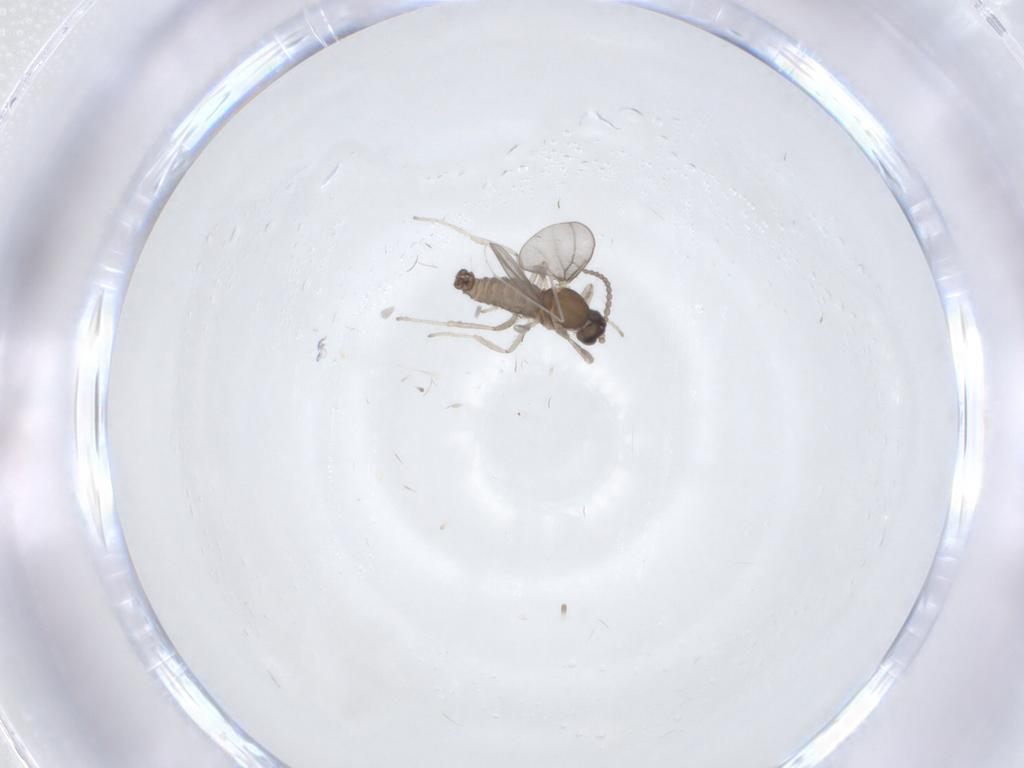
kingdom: Animalia
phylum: Arthropoda
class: Insecta
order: Diptera
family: Cecidomyiidae
